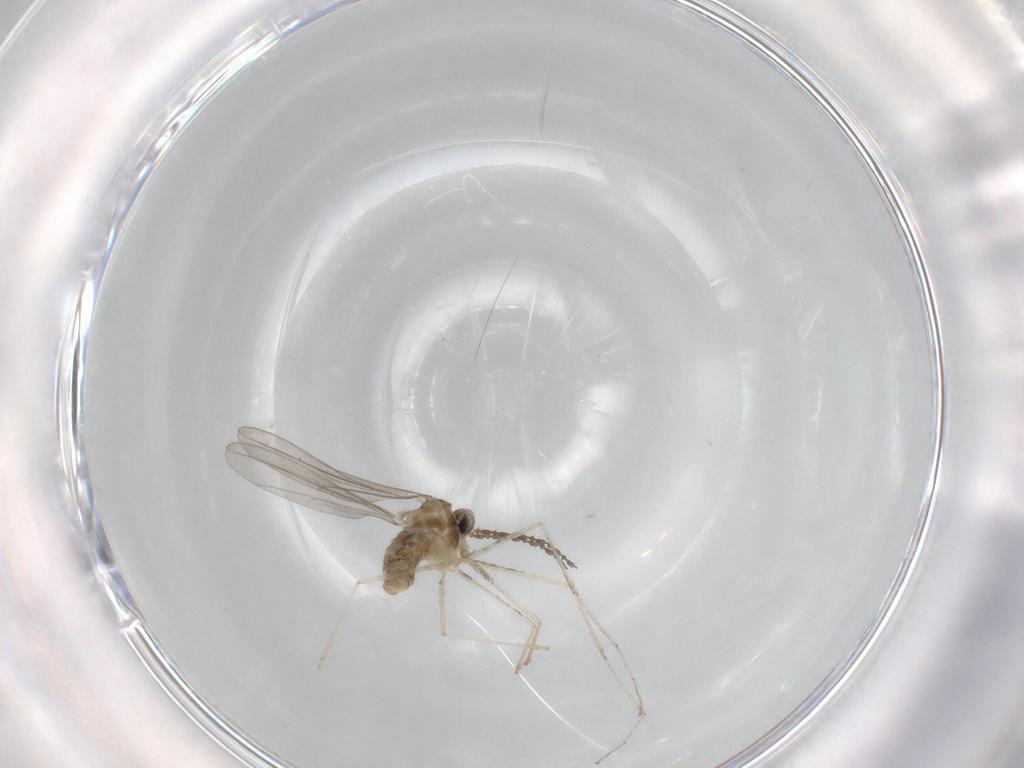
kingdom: Animalia
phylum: Arthropoda
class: Insecta
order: Diptera
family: Cecidomyiidae
